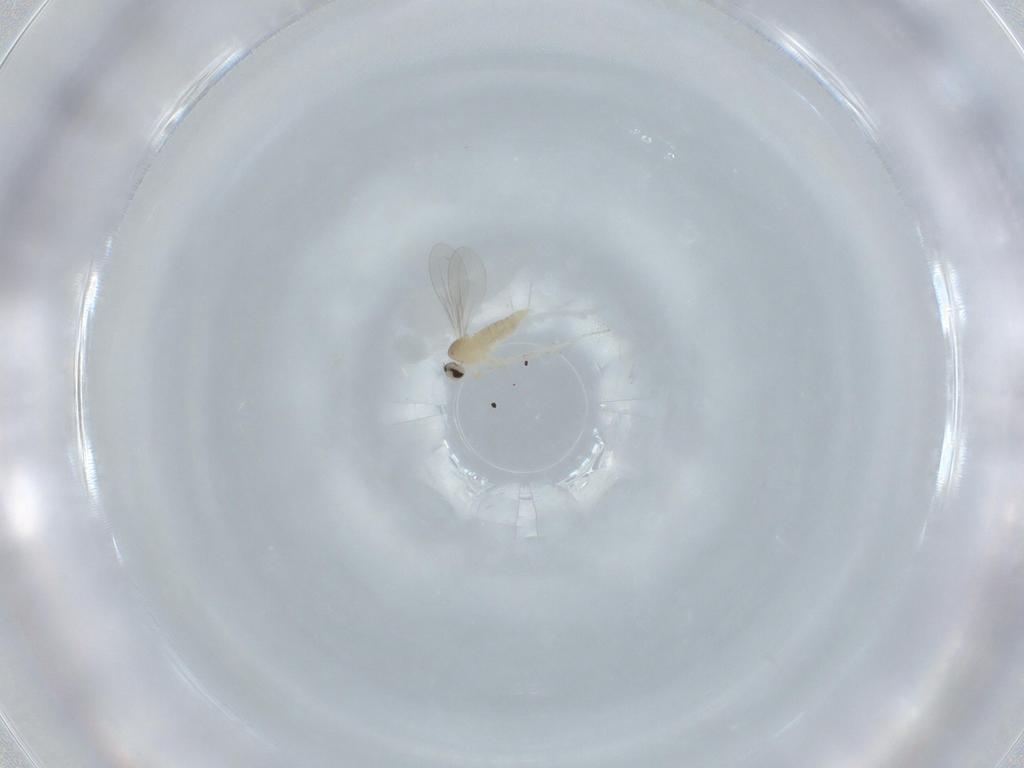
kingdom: Animalia
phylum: Arthropoda
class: Insecta
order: Diptera
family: Cecidomyiidae
